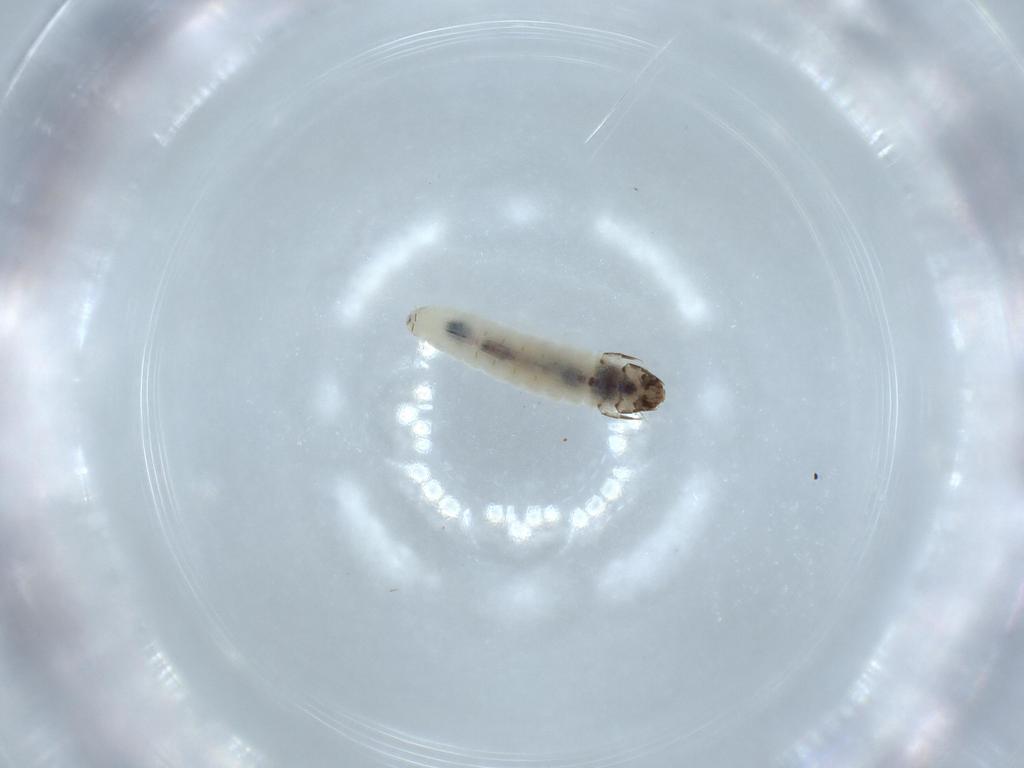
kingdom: Animalia
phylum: Arthropoda
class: Insecta
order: Lepidoptera
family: Tineidae
